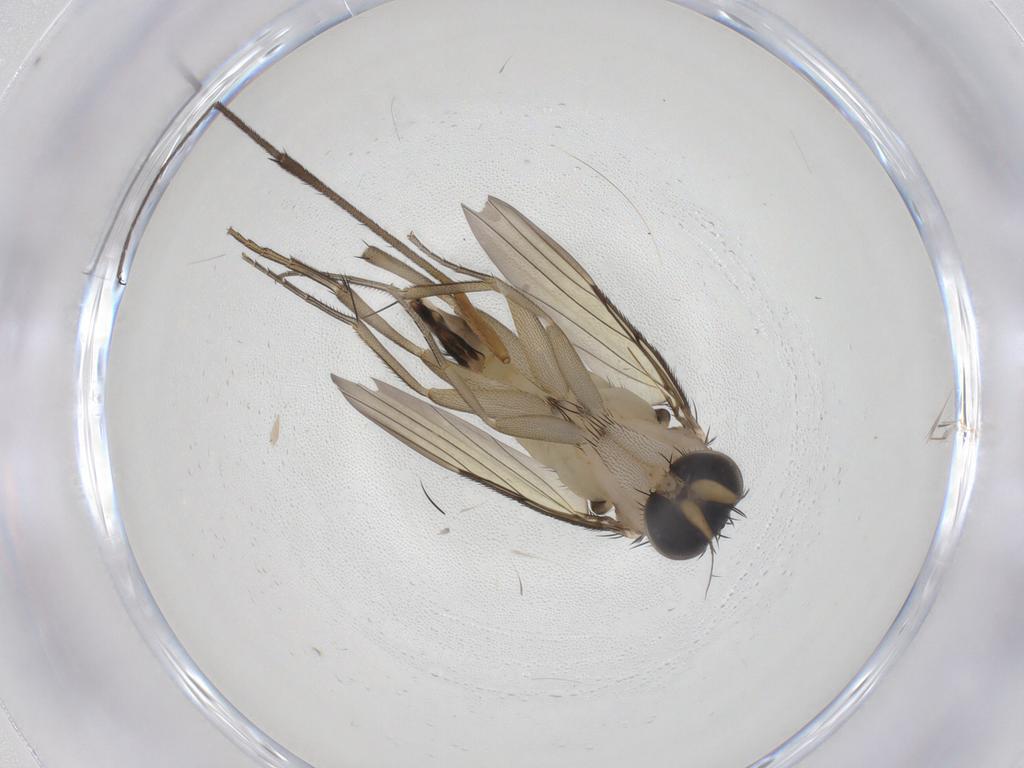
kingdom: Animalia
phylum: Arthropoda
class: Insecta
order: Diptera
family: Phoridae
